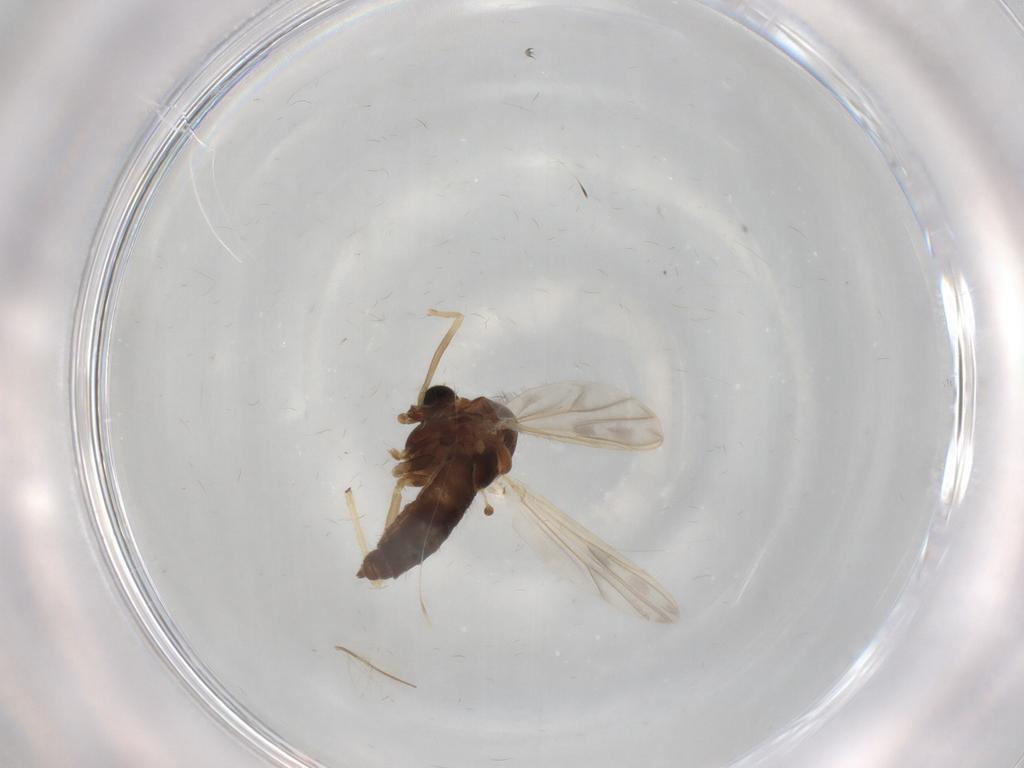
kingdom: Animalia
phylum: Arthropoda
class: Insecta
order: Diptera
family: Chironomidae
